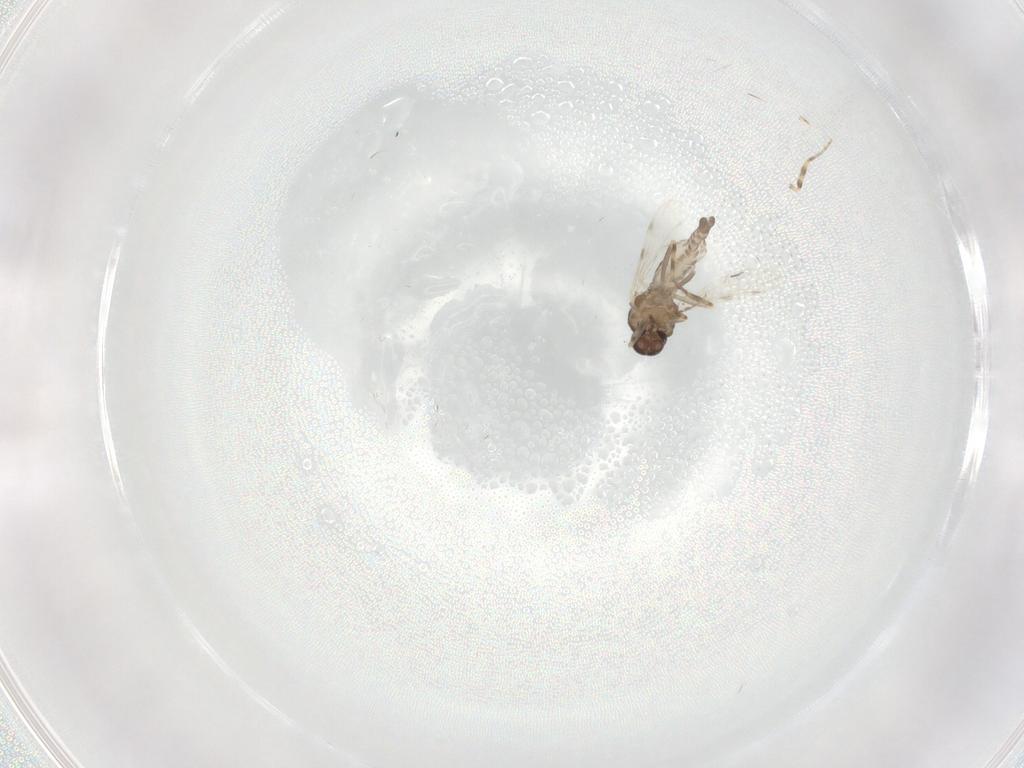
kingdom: Animalia
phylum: Arthropoda
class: Insecta
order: Diptera
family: Ceratopogonidae
